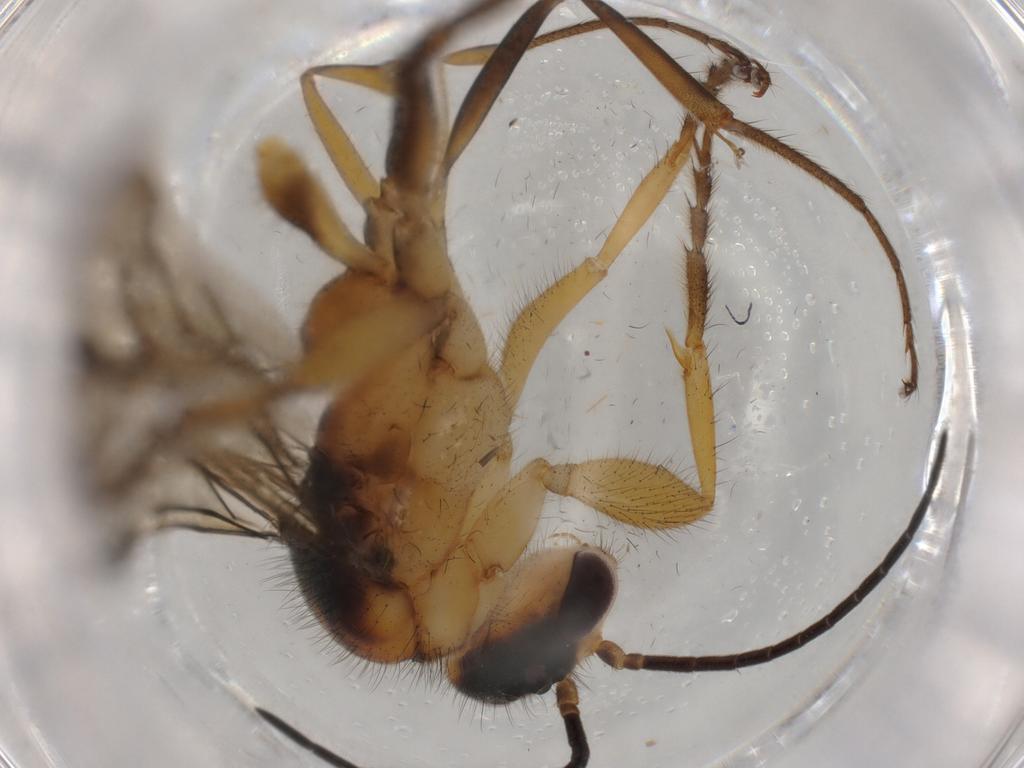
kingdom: Animalia
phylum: Arthropoda
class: Insecta
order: Hymenoptera
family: Formicidae
